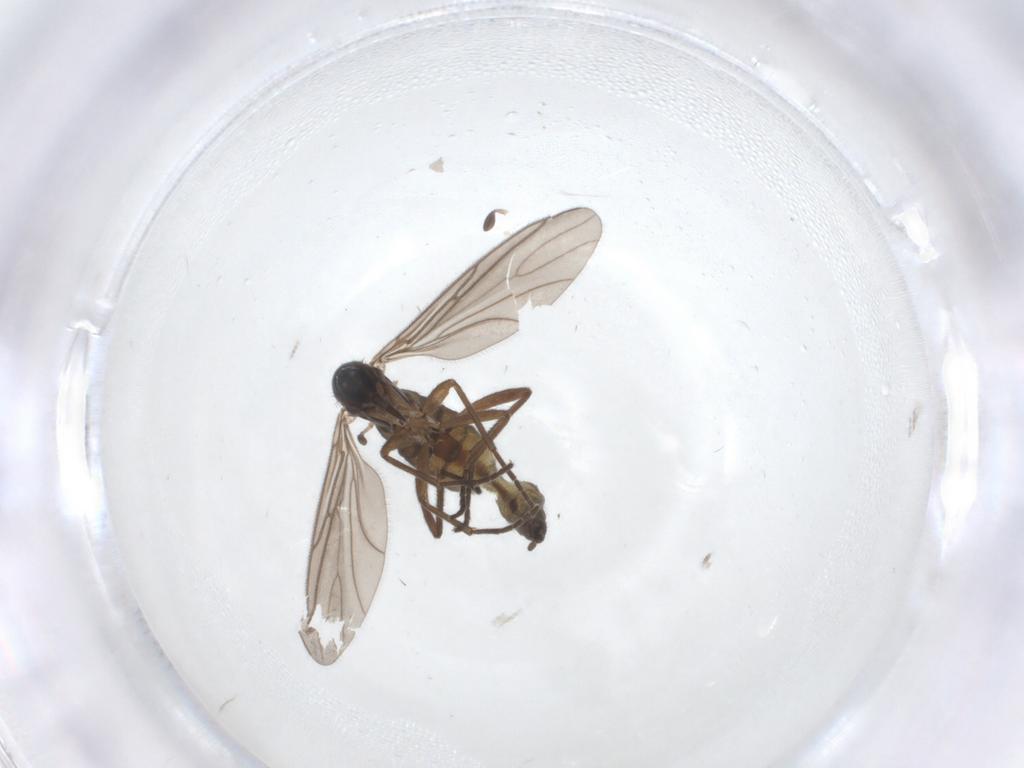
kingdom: Animalia
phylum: Arthropoda
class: Insecta
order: Diptera
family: Sciaridae
